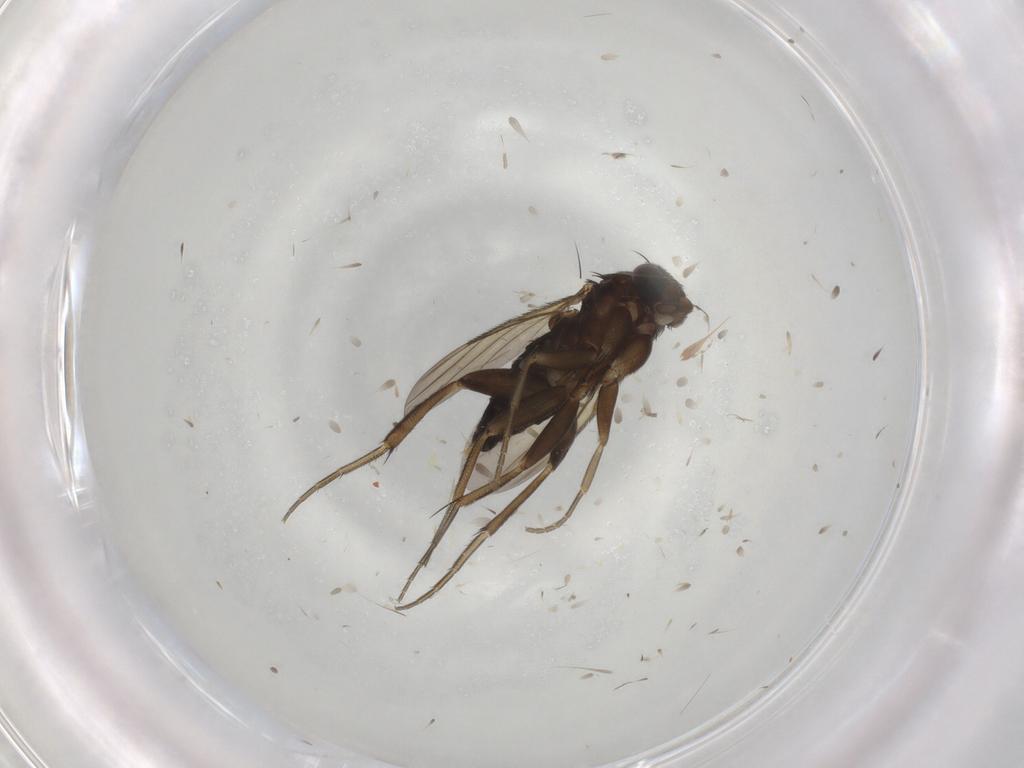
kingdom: Animalia
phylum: Arthropoda
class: Insecta
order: Diptera
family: Phoridae
